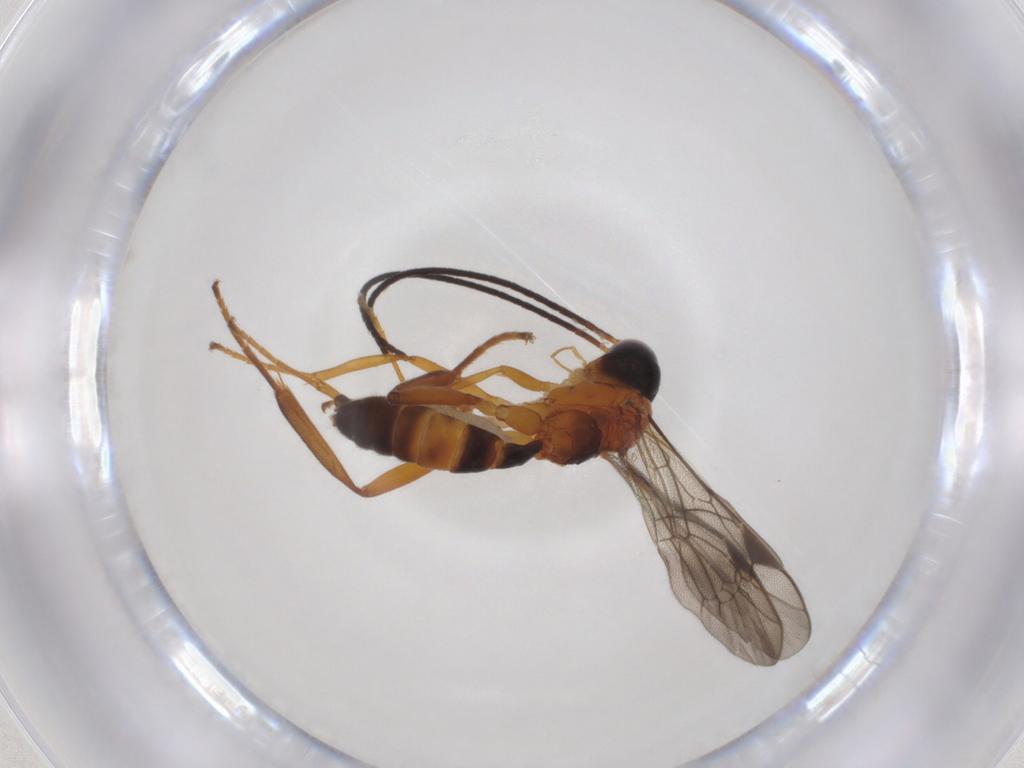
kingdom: Animalia
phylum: Arthropoda
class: Insecta
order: Hymenoptera
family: Ichneumonidae
